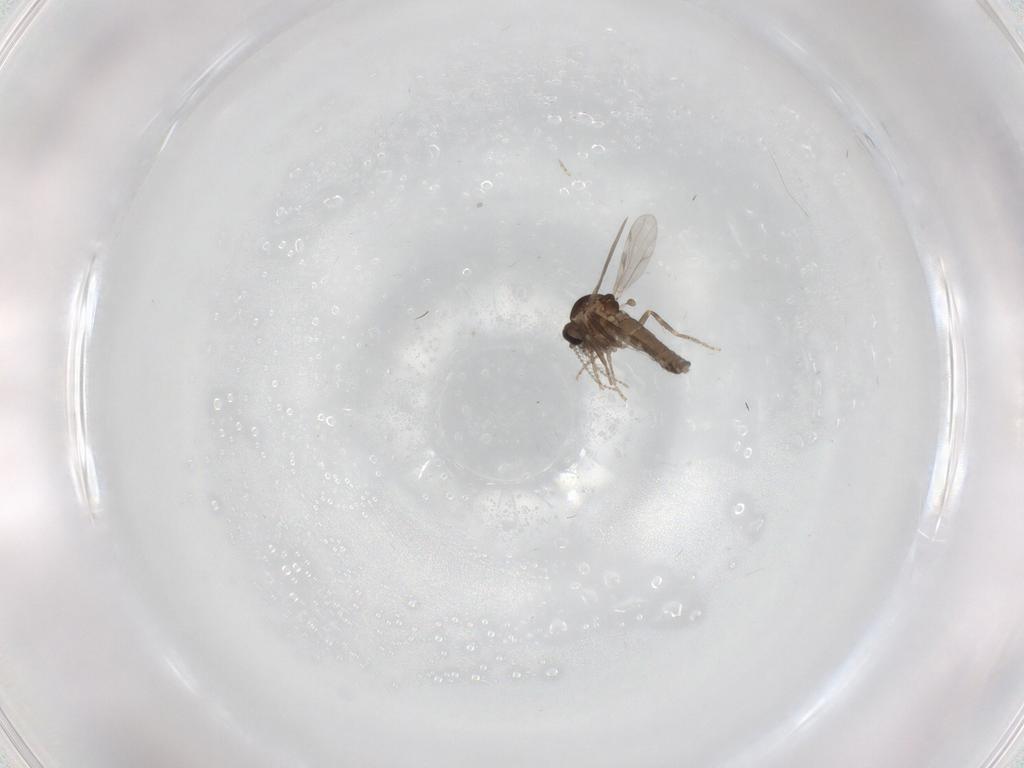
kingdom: Animalia
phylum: Arthropoda
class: Insecta
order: Diptera
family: Ceratopogonidae
